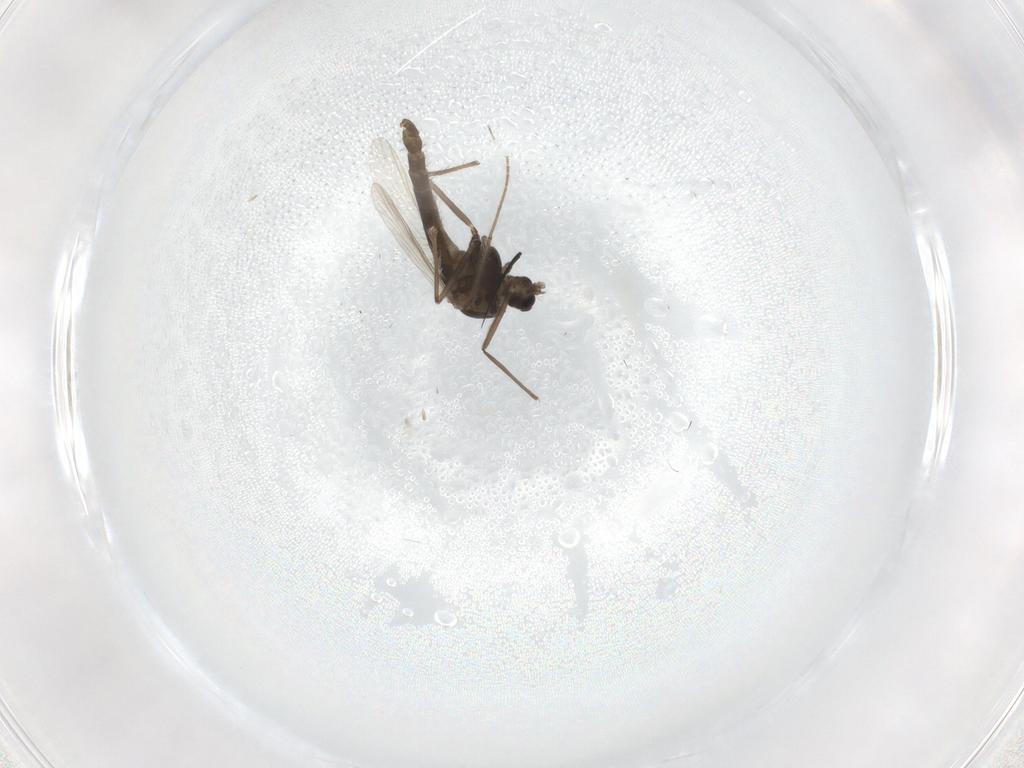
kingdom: Animalia
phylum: Arthropoda
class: Insecta
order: Diptera
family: Chironomidae
